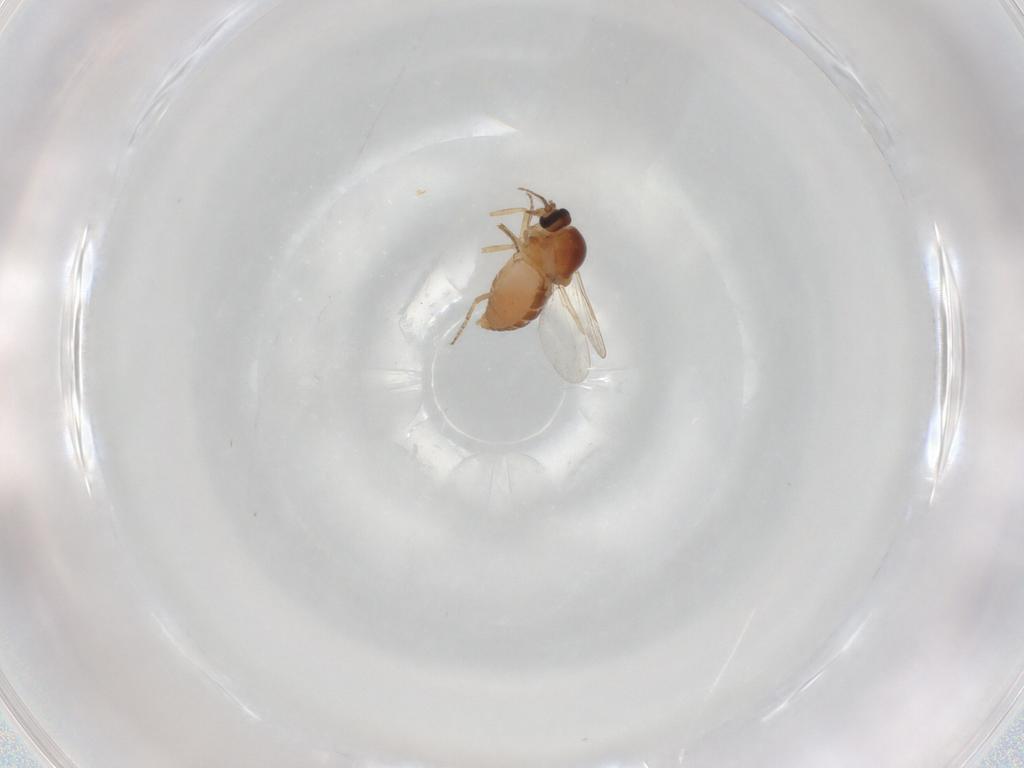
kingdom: Animalia
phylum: Arthropoda
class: Insecta
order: Diptera
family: Ceratopogonidae
